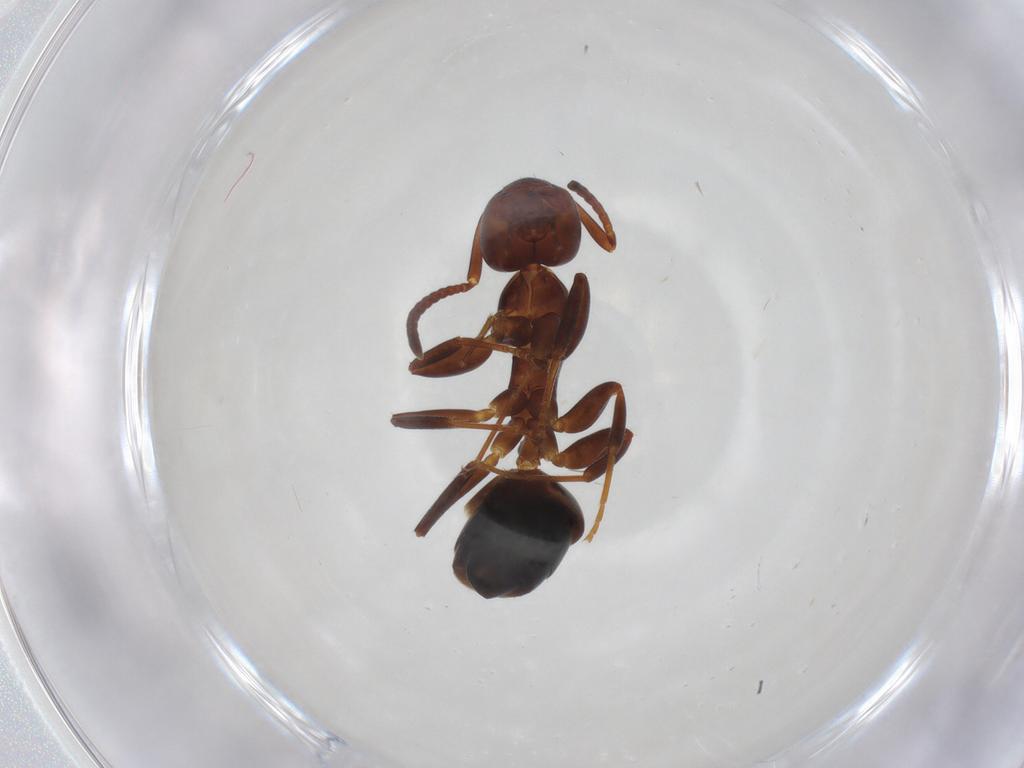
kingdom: Animalia
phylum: Arthropoda
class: Insecta
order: Hymenoptera
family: Formicidae
